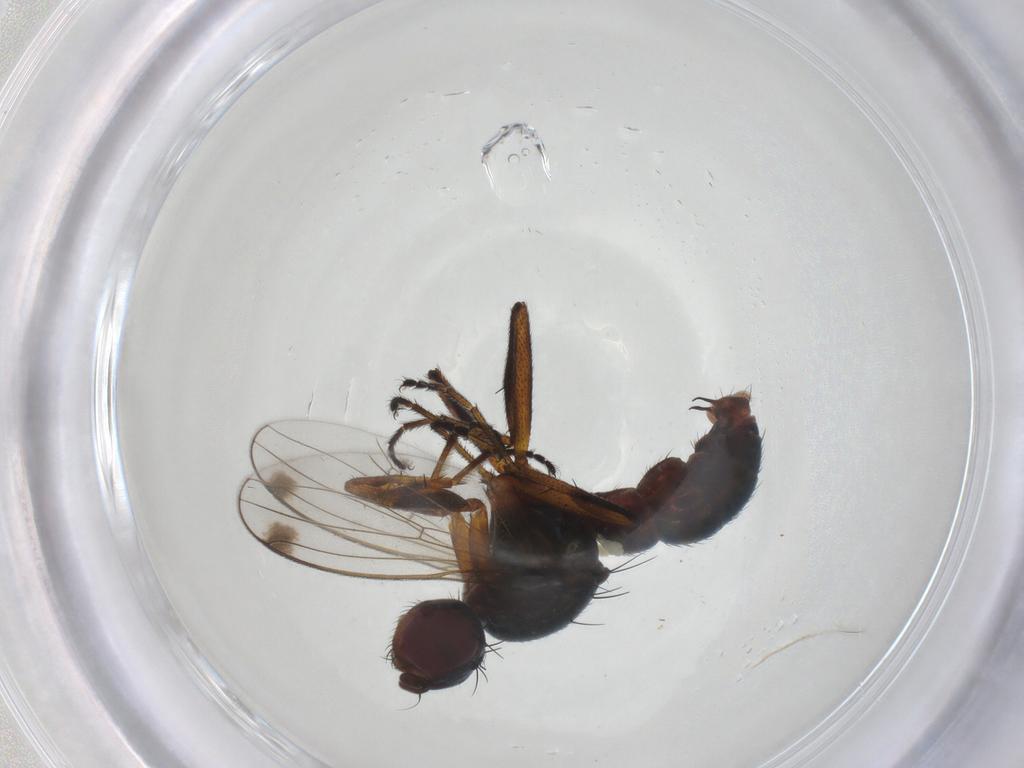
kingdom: Animalia
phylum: Arthropoda
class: Insecta
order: Diptera
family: Sepsidae
